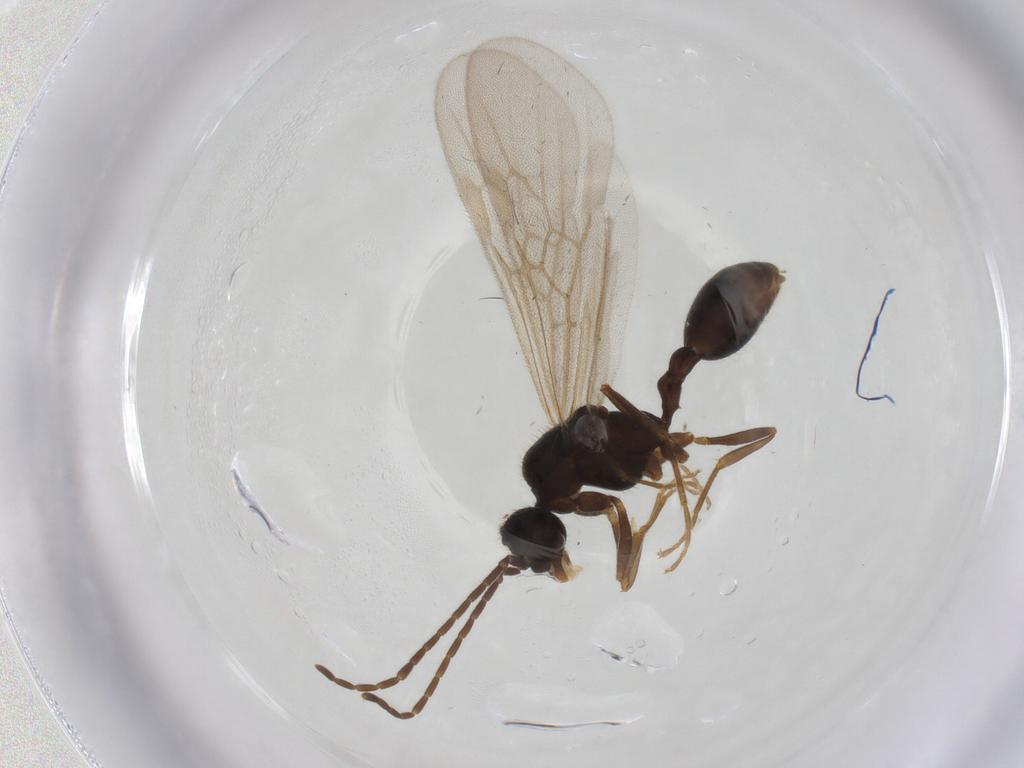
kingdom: Animalia
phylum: Arthropoda
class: Insecta
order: Hymenoptera
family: Formicidae
